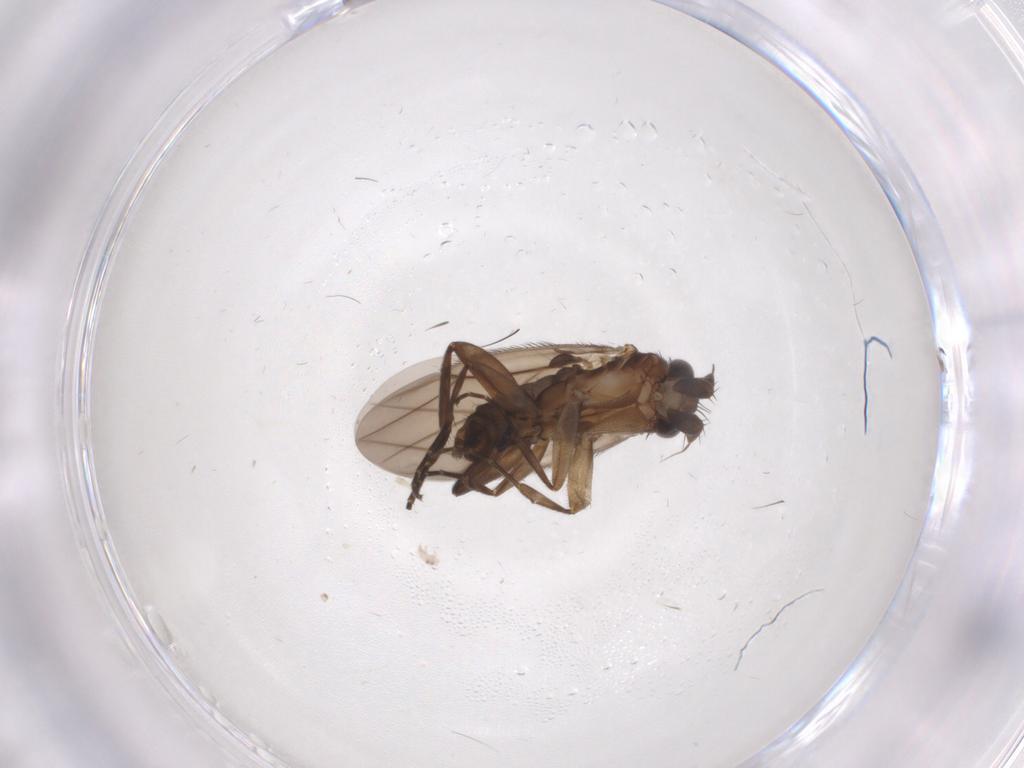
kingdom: Animalia
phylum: Arthropoda
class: Insecta
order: Diptera
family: Phoridae
